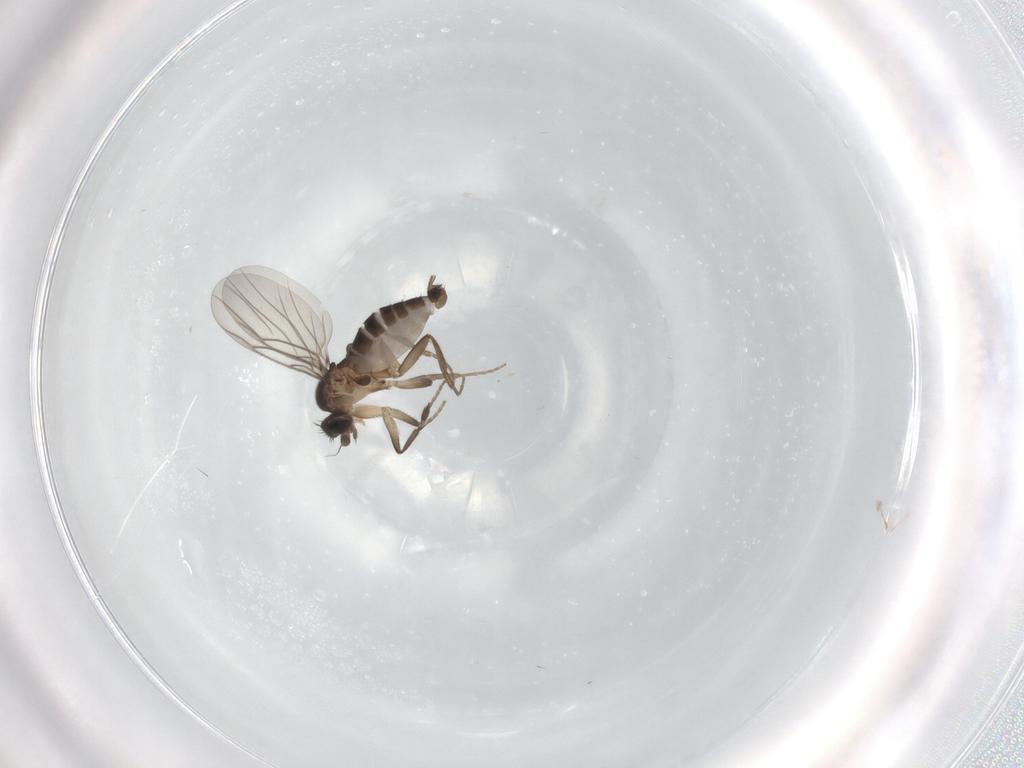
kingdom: Animalia
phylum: Arthropoda
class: Insecta
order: Diptera
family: Phoridae
